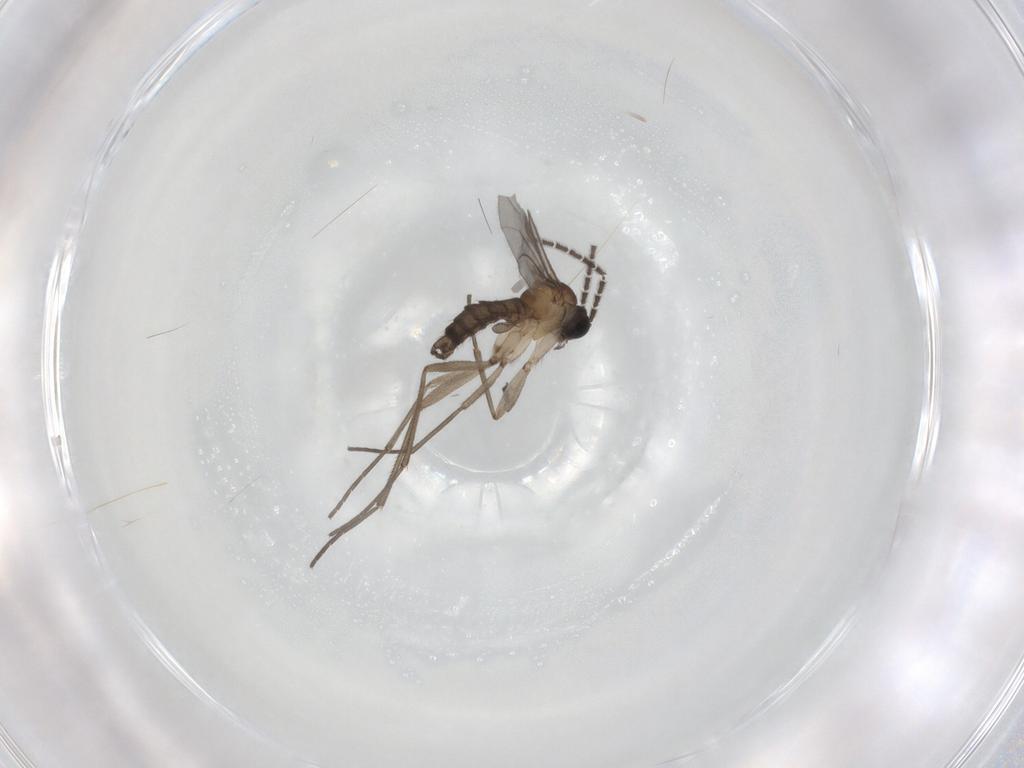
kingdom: Animalia
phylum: Arthropoda
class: Insecta
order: Diptera
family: Sciaridae
